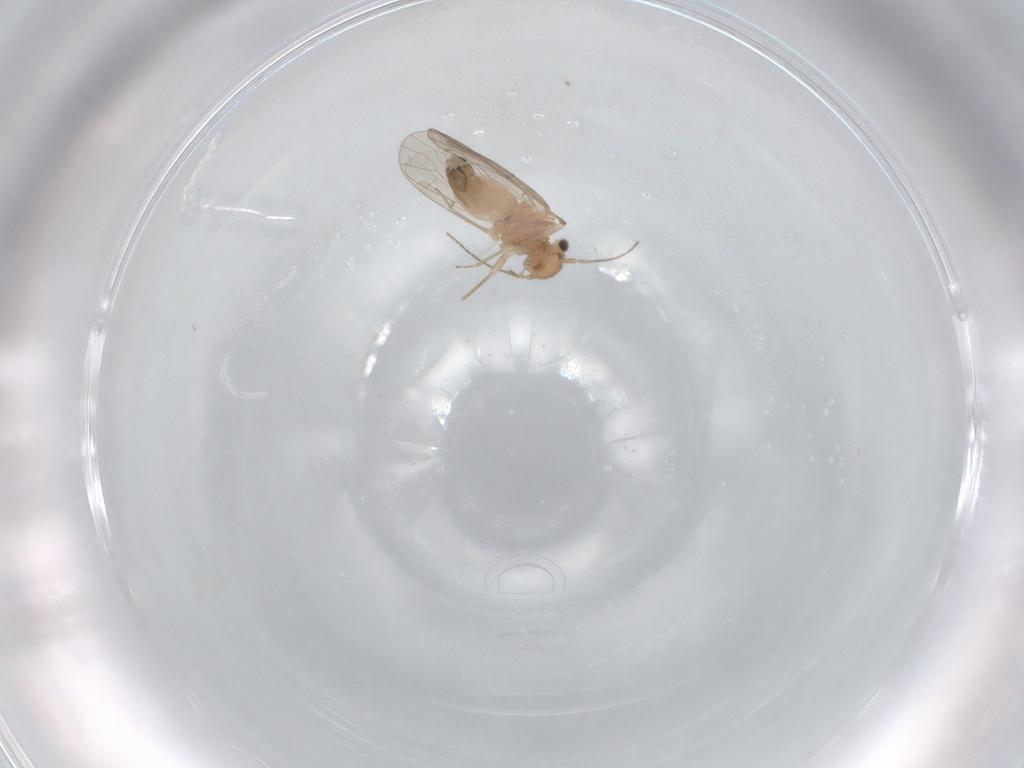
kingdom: Animalia
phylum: Arthropoda
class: Insecta
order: Psocodea
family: Ectopsocidae
